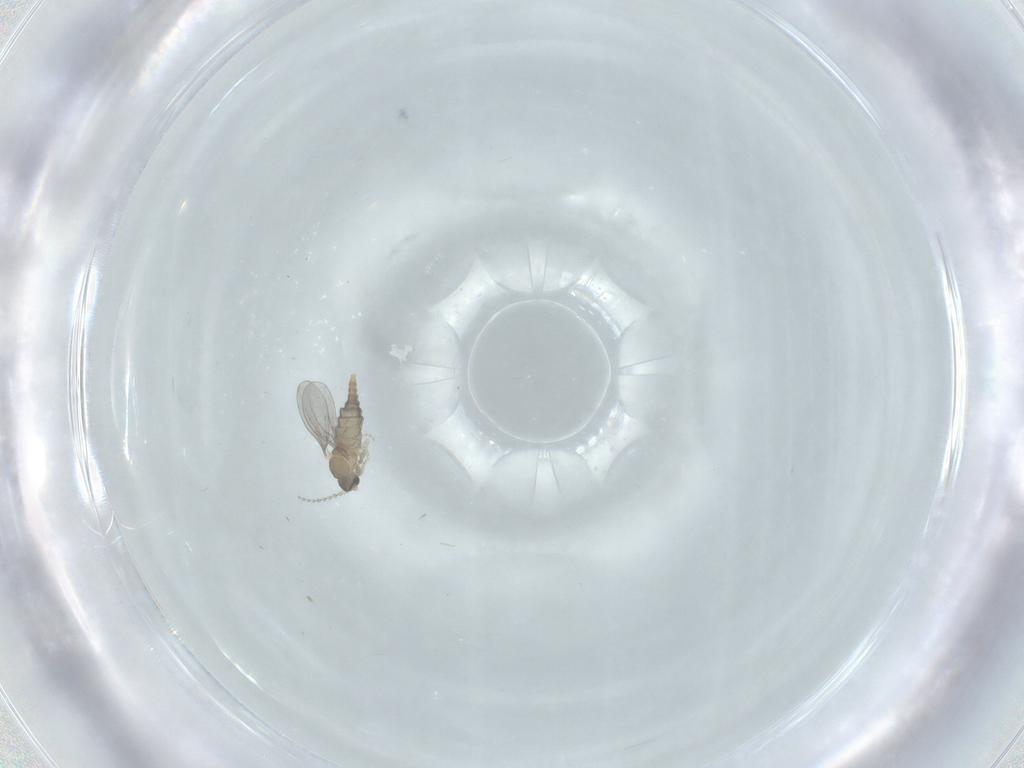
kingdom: Animalia
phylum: Arthropoda
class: Insecta
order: Diptera
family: Cecidomyiidae
